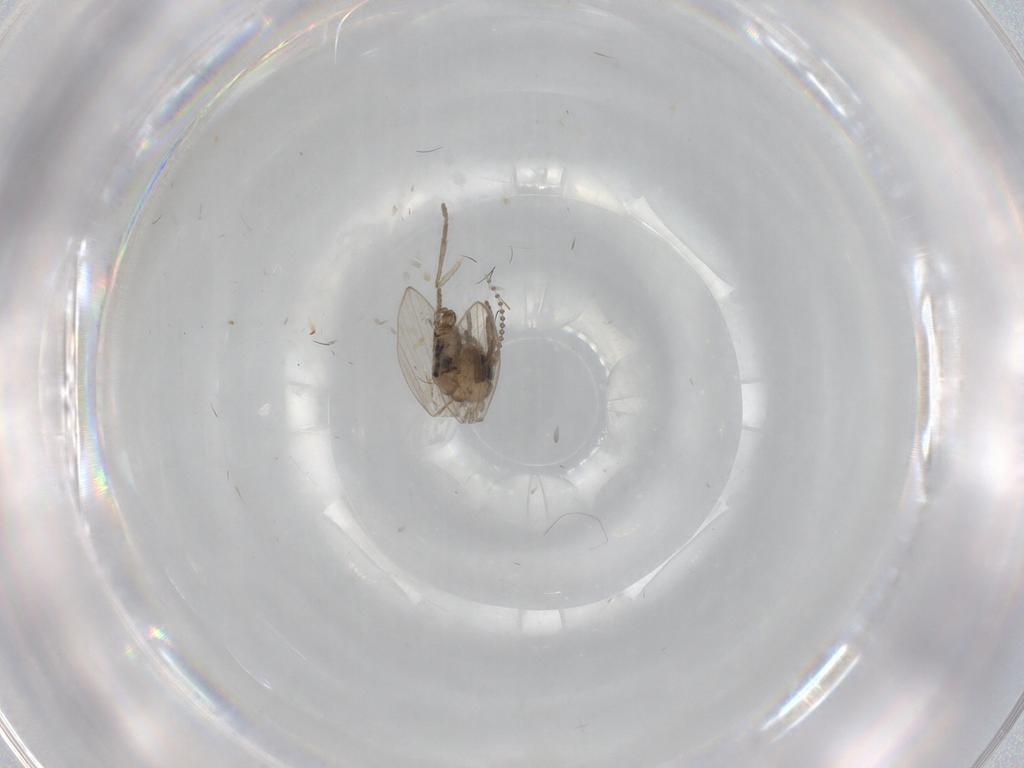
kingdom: Animalia
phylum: Arthropoda
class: Insecta
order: Diptera
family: Psychodidae
